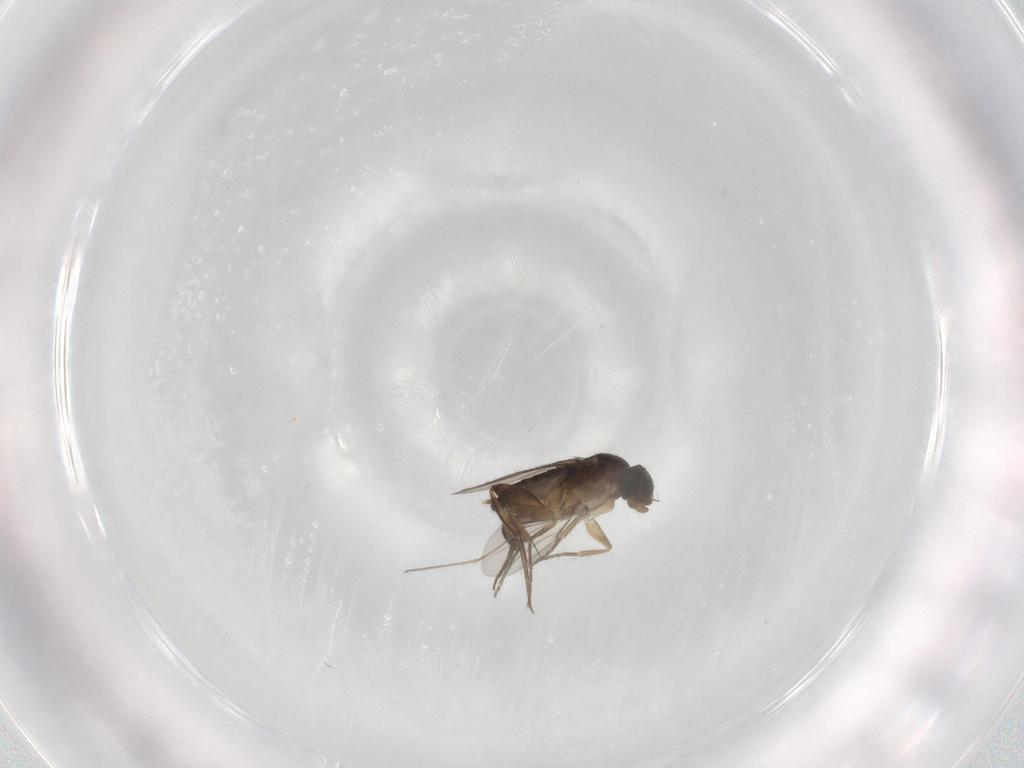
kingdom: Animalia
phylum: Arthropoda
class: Insecta
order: Diptera
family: Phoridae
